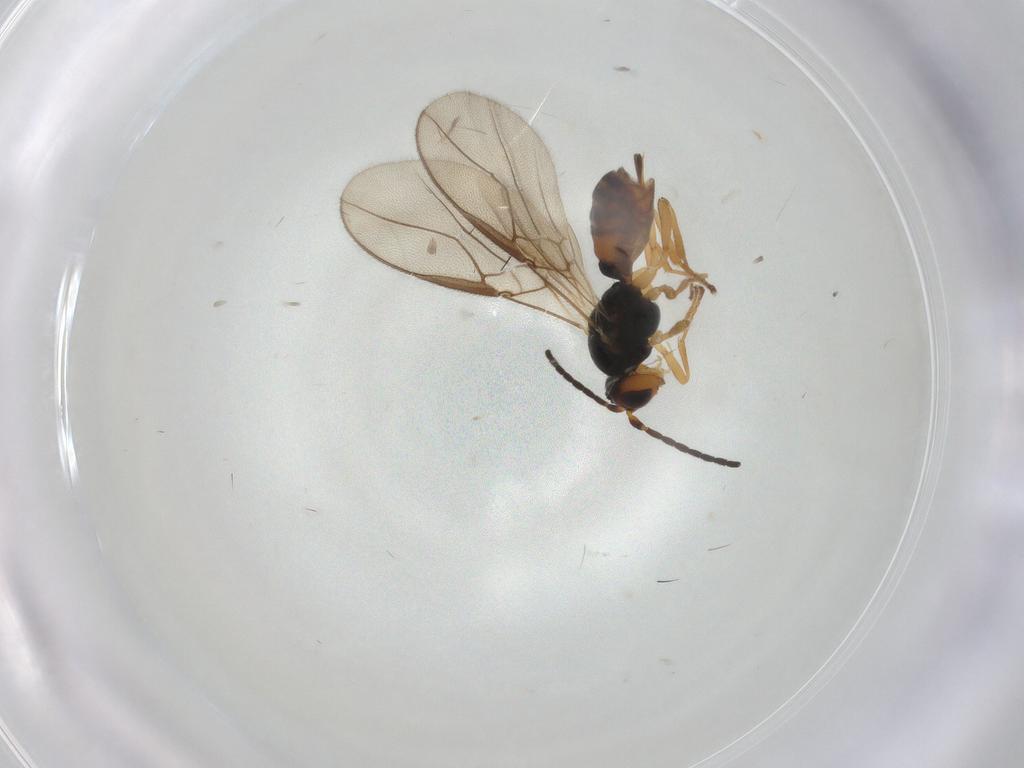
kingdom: Animalia
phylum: Arthropoda
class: Insecta
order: Hymenoptera
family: Braconidae
